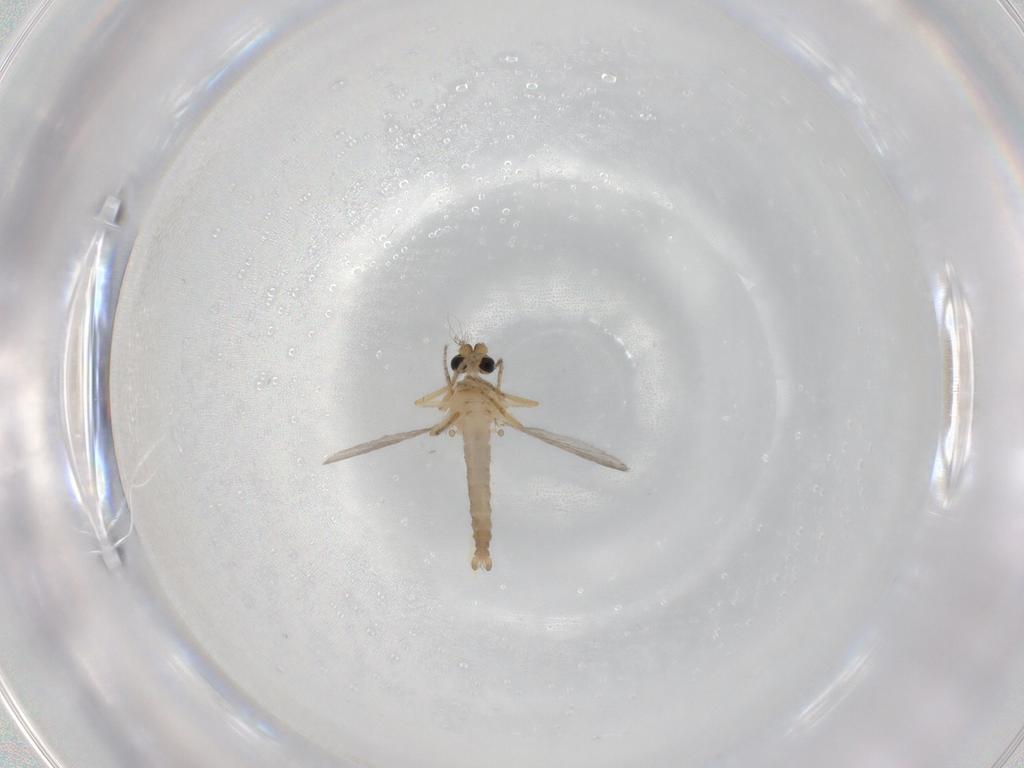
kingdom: Animalia
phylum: Arthropoda
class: Insecta
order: Diptera
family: Ceratopogonidae
